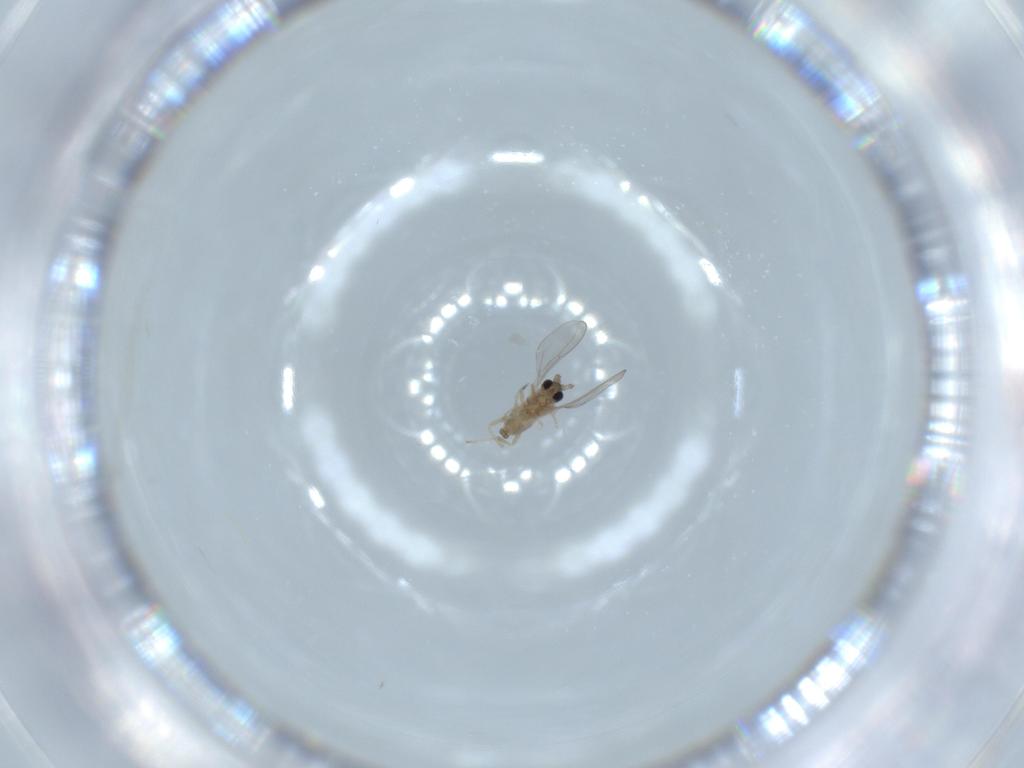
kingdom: Animalia
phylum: Arthropoda
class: Insecta
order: Diptera
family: Cecidomyiidae
